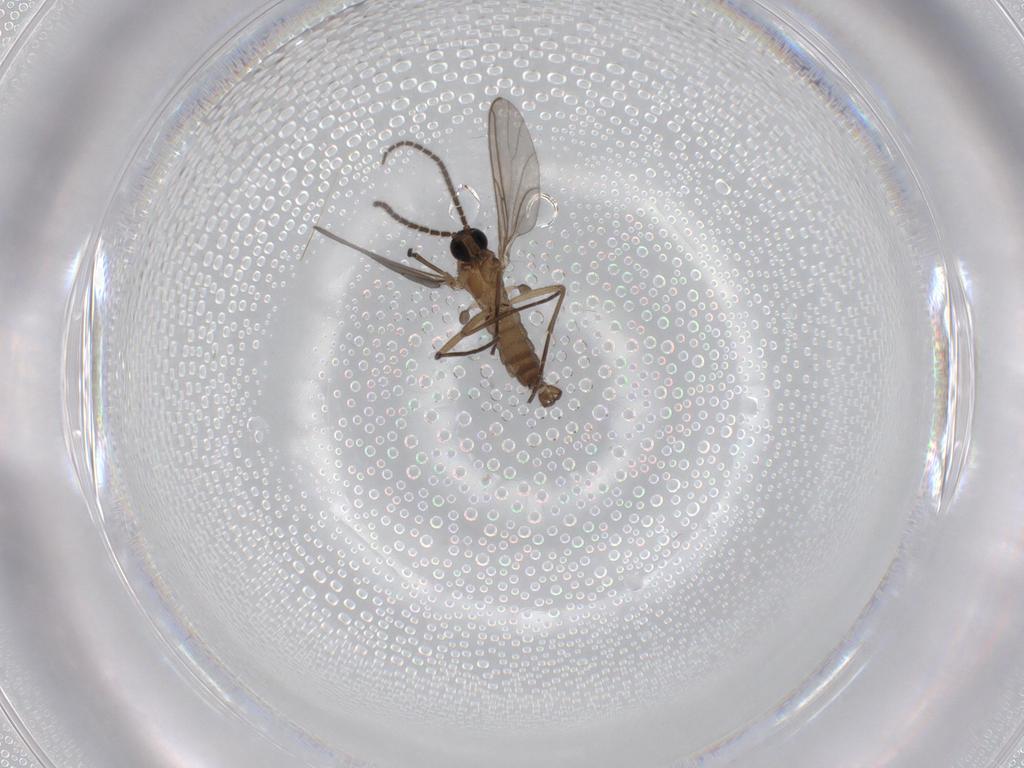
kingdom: Animalia
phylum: Arthropoda
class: Insecta
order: Diptera
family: Sciaridae
